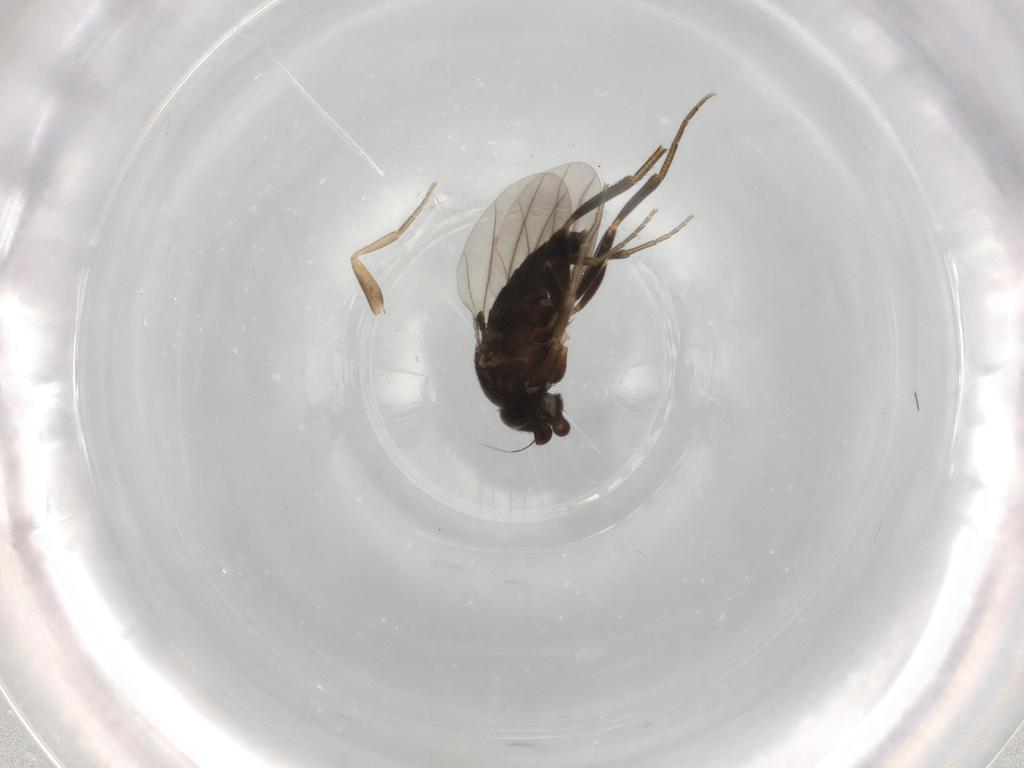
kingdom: Animalia
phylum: Arthropoda
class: Insecta
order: Diptera
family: Phoridae
